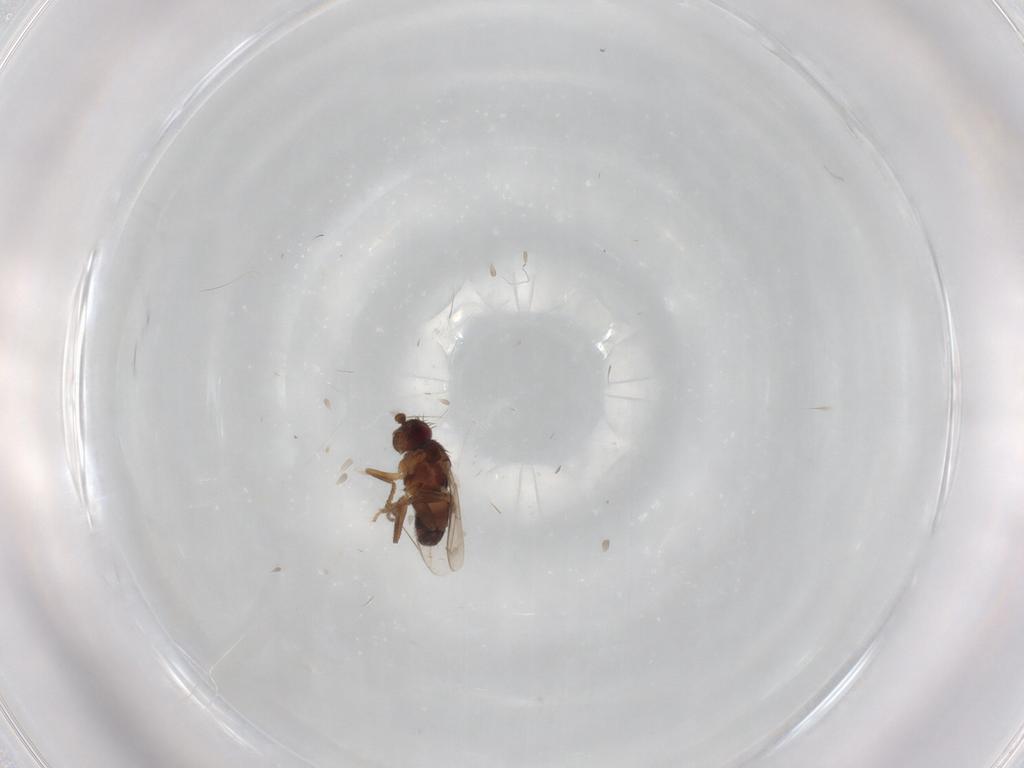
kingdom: Animalia
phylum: Arthropoda
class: Insecta
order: Diptera
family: Sphaeroceridae
